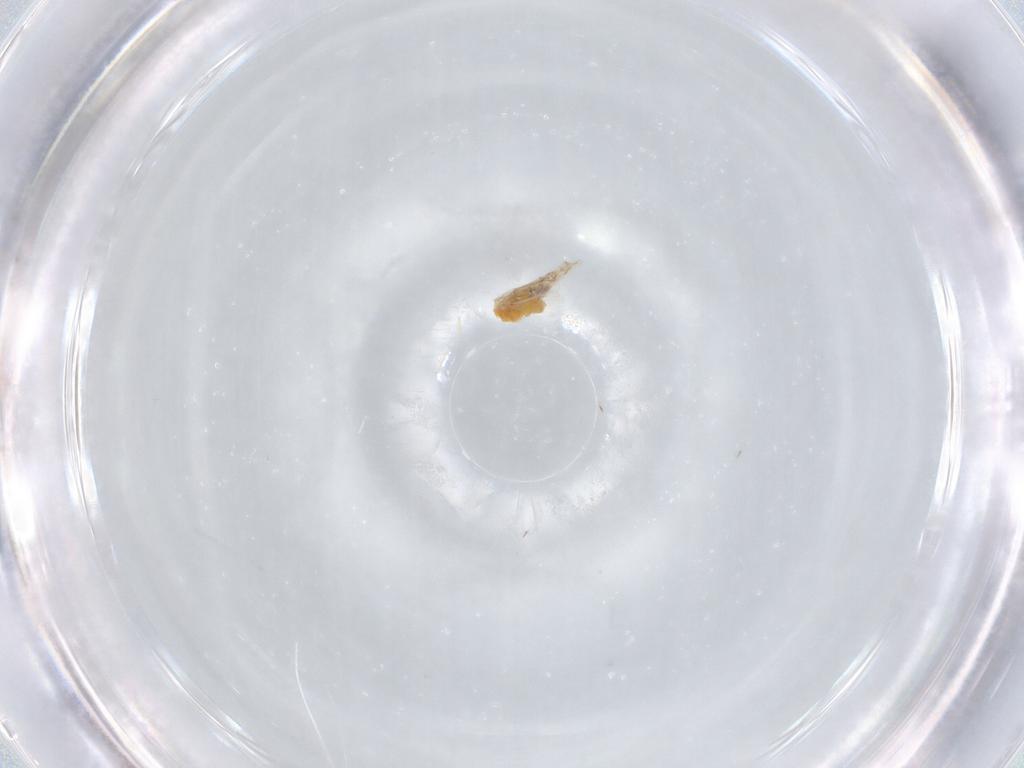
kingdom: Animalia
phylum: Arthropoda
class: Insecta
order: Hemiptera
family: Aleyrodidae
